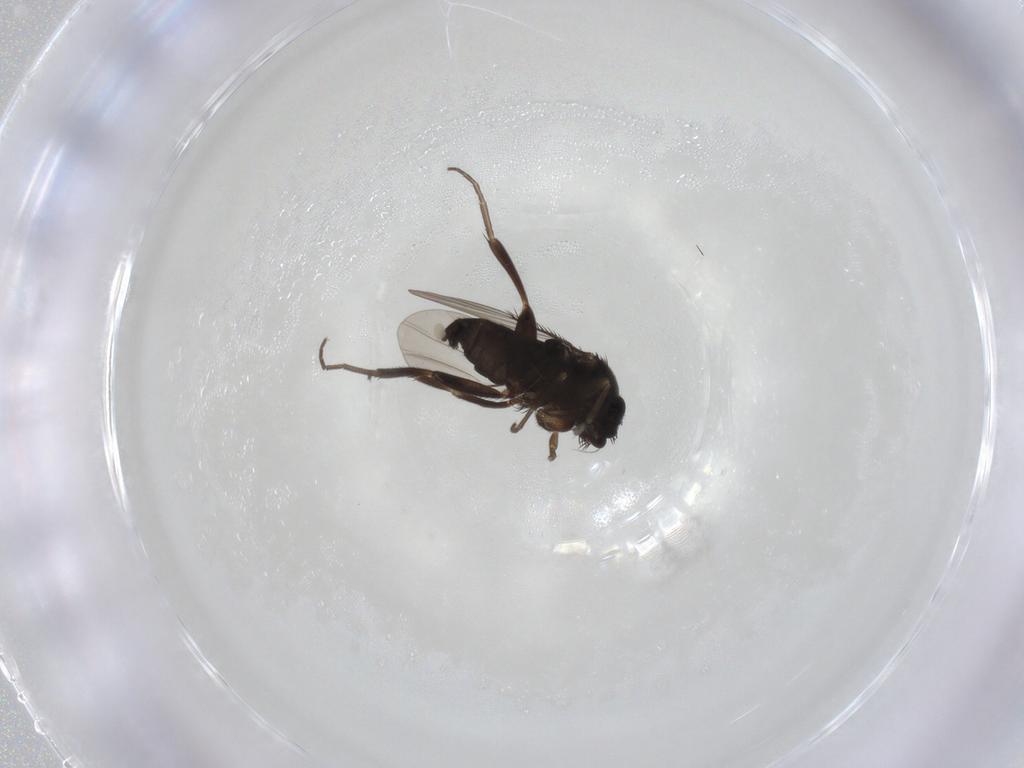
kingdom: Animalia
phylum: Arthropoda
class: Insecta
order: Diptera
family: Phoridae
